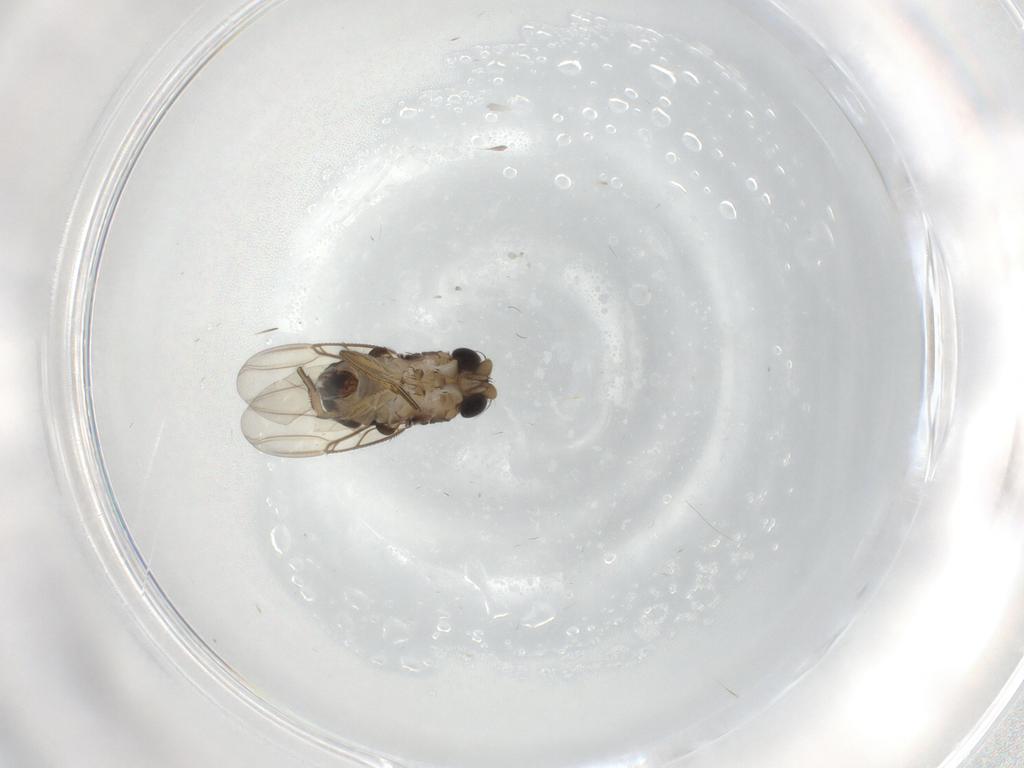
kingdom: Animalia
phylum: Arthropoda
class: Insecta
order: Diptera
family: Phoridae
